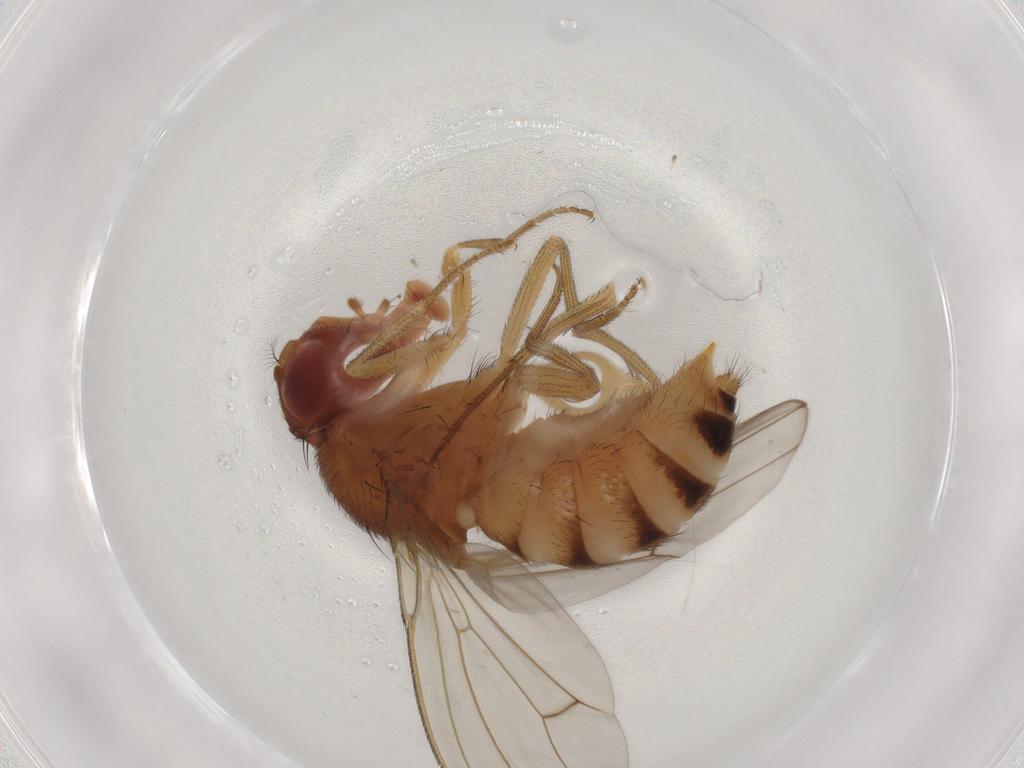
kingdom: Animalia
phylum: Arthropoda
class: Insecta
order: Diptera
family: Drosophilidae
